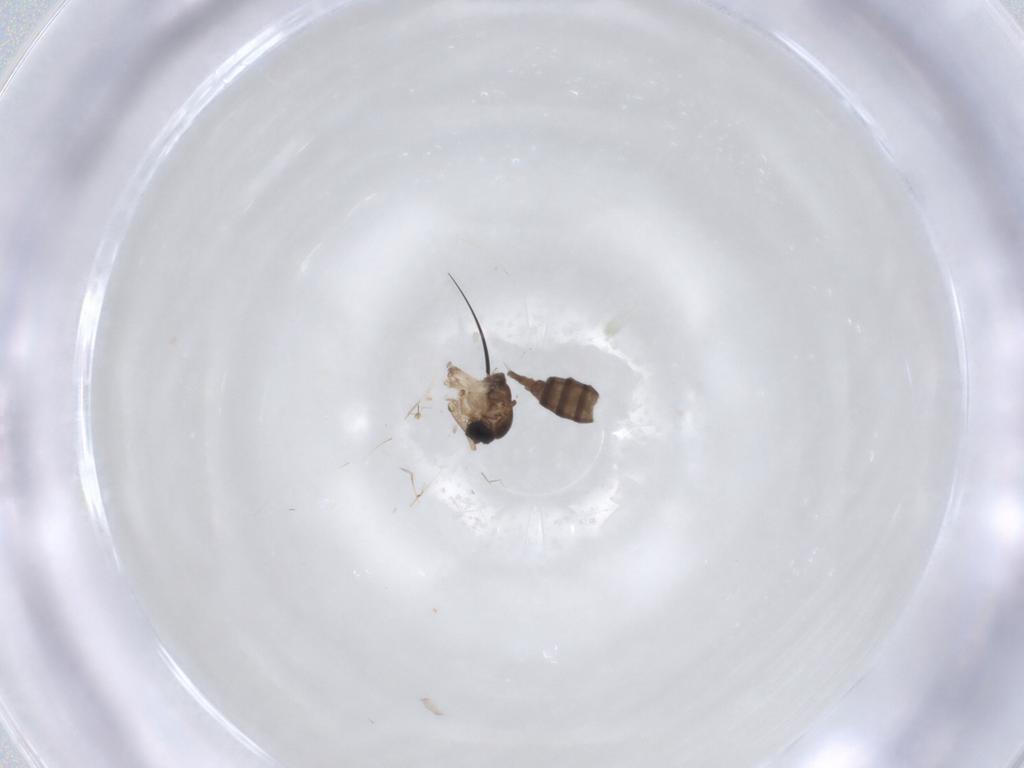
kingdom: Animalia
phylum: Arthropoda
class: Insecta
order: Diptera
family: Sciaridae
